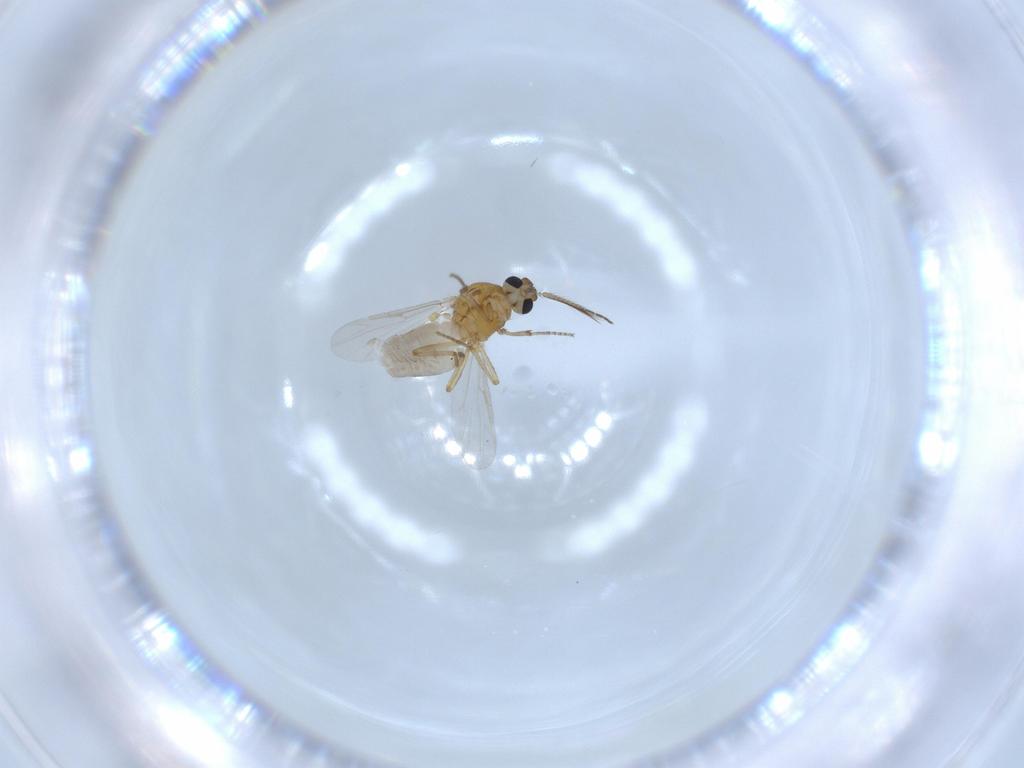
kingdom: Animalia
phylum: Arthropoda
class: Insecta
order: Diptera
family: Ceratopogonidae
